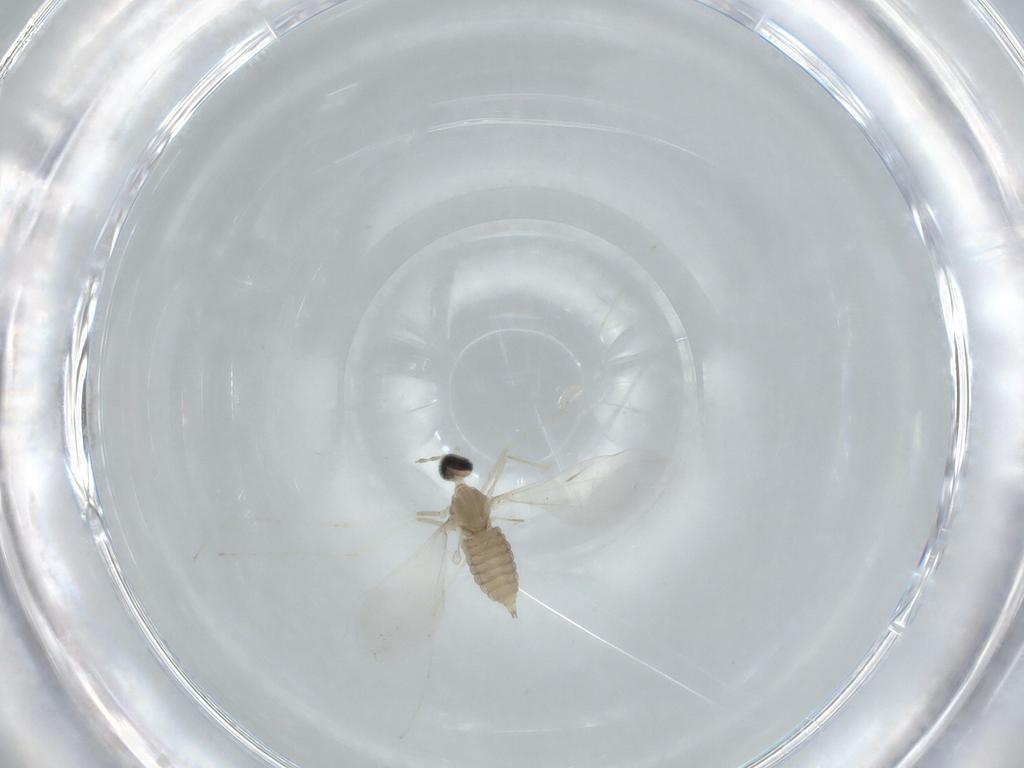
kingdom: Animalia
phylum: Arthropoda
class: Insecta
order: Diptera
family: Cecidomyiidae
